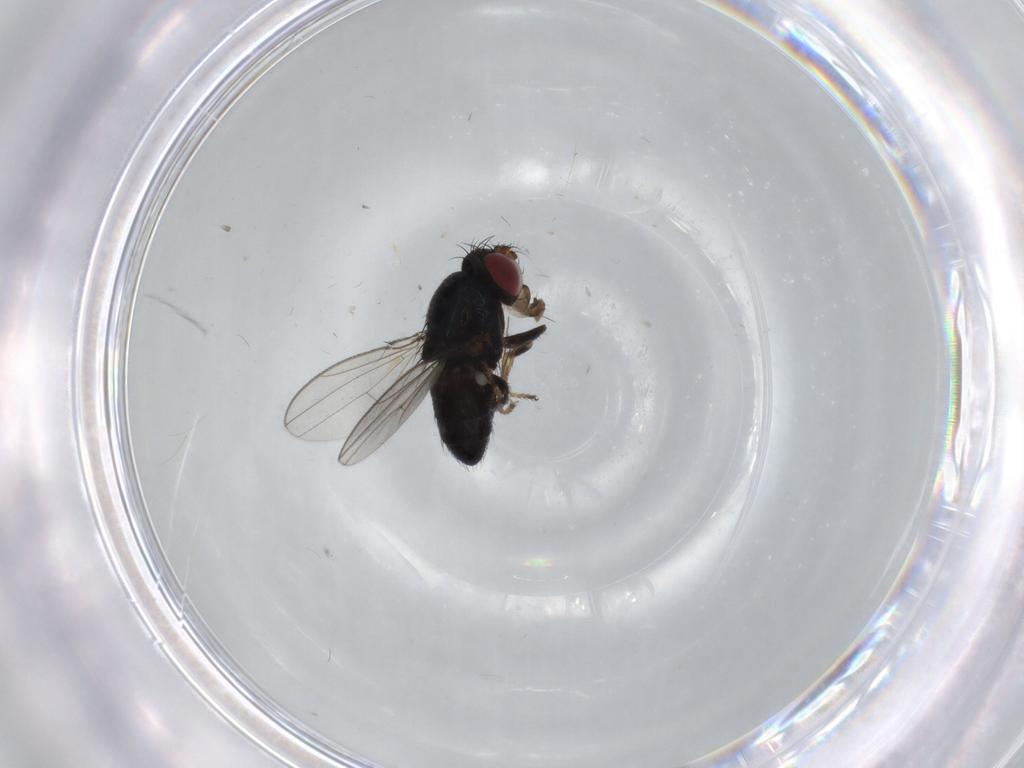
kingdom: Animalia
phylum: Arthropoda
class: Insecta
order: Diptera
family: Ephydridae
